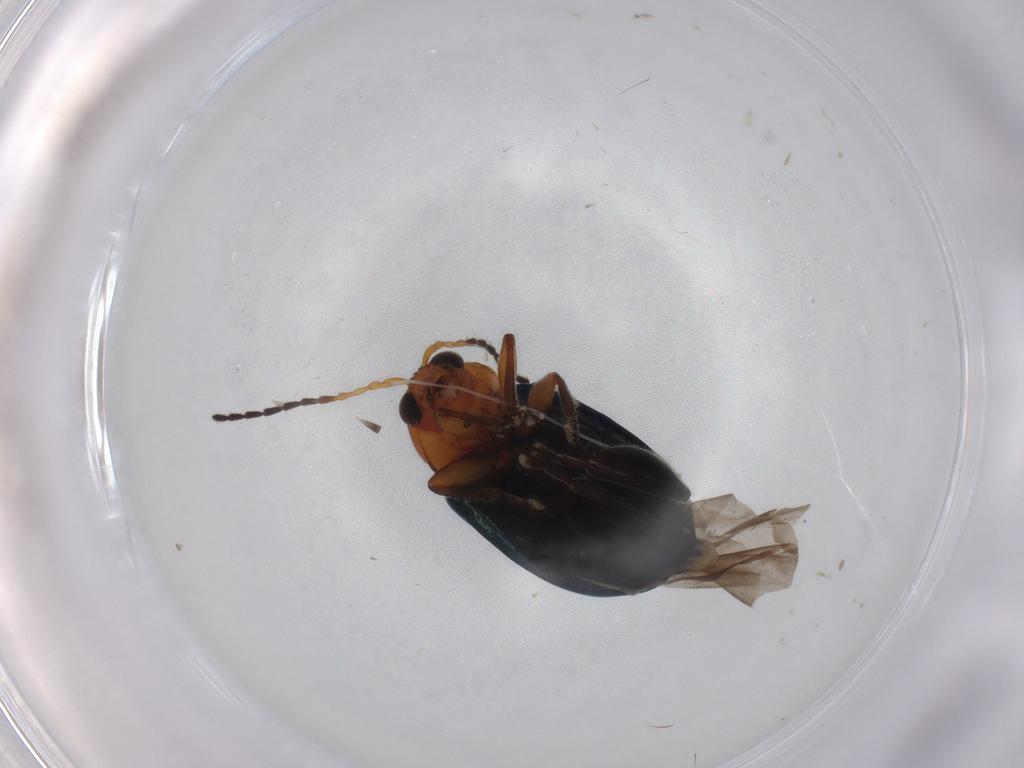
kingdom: Animalia
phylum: Arthropoda
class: Insecta
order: Coleoptera
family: Chrysomelidae
